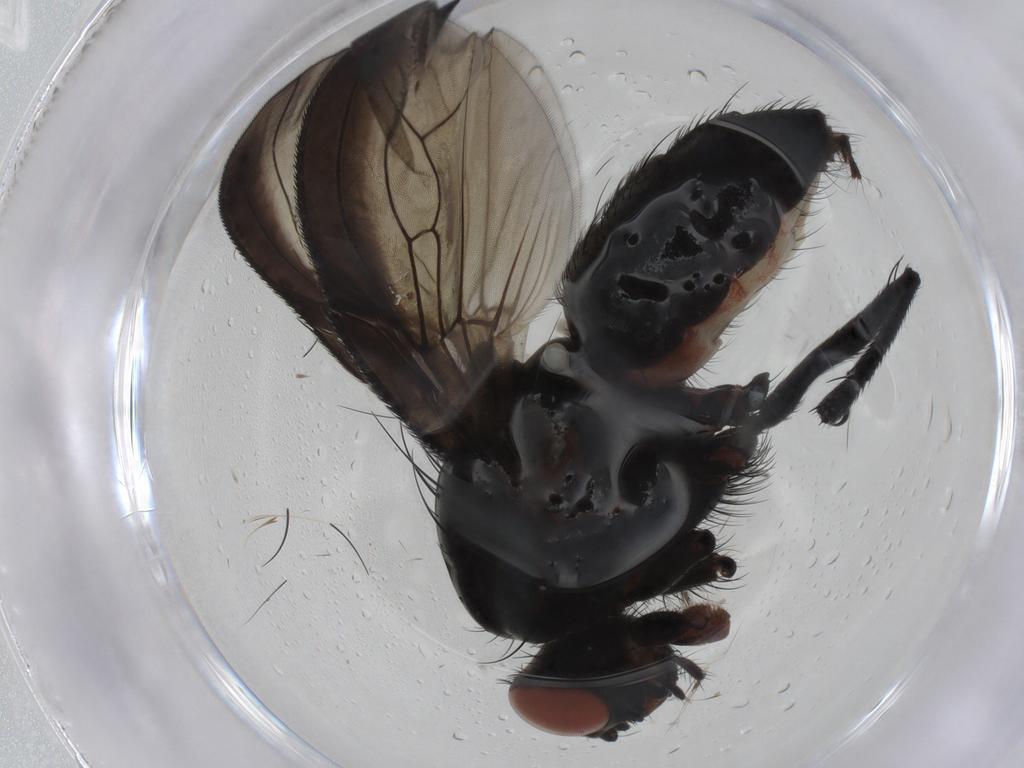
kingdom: Animalia
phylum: Arthropoda
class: Insecta
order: Diptera
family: Anthomyiidae
